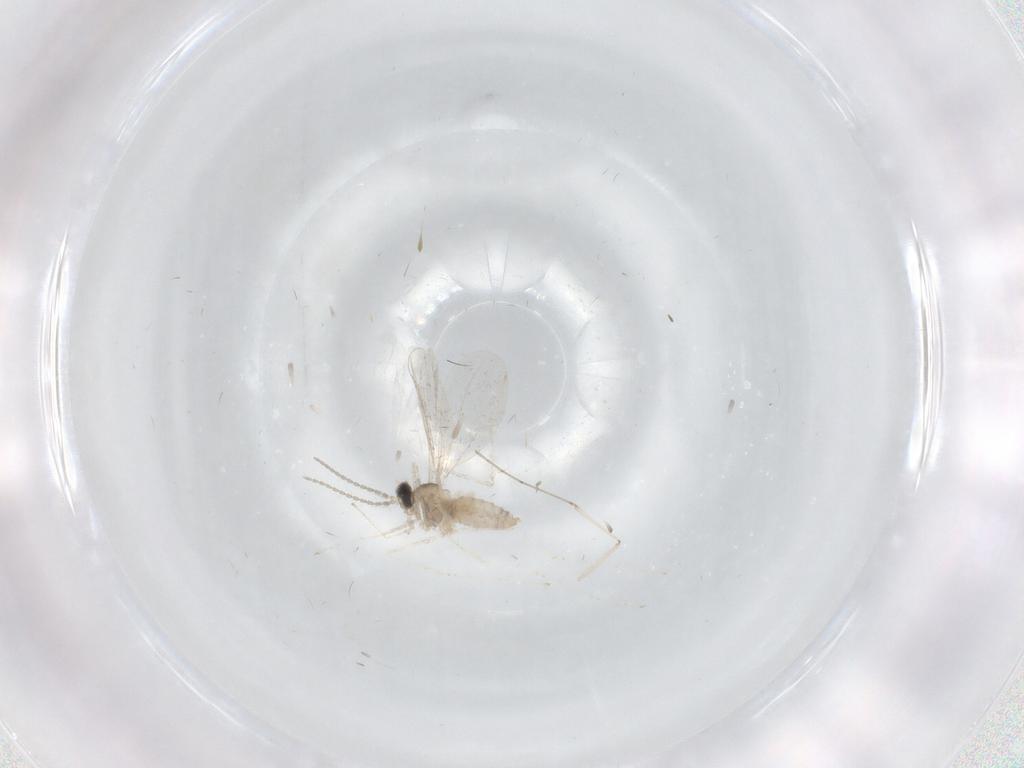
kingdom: Animalia
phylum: Arthropoda
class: Insecta
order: Diptera
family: Cecidomyiidae
